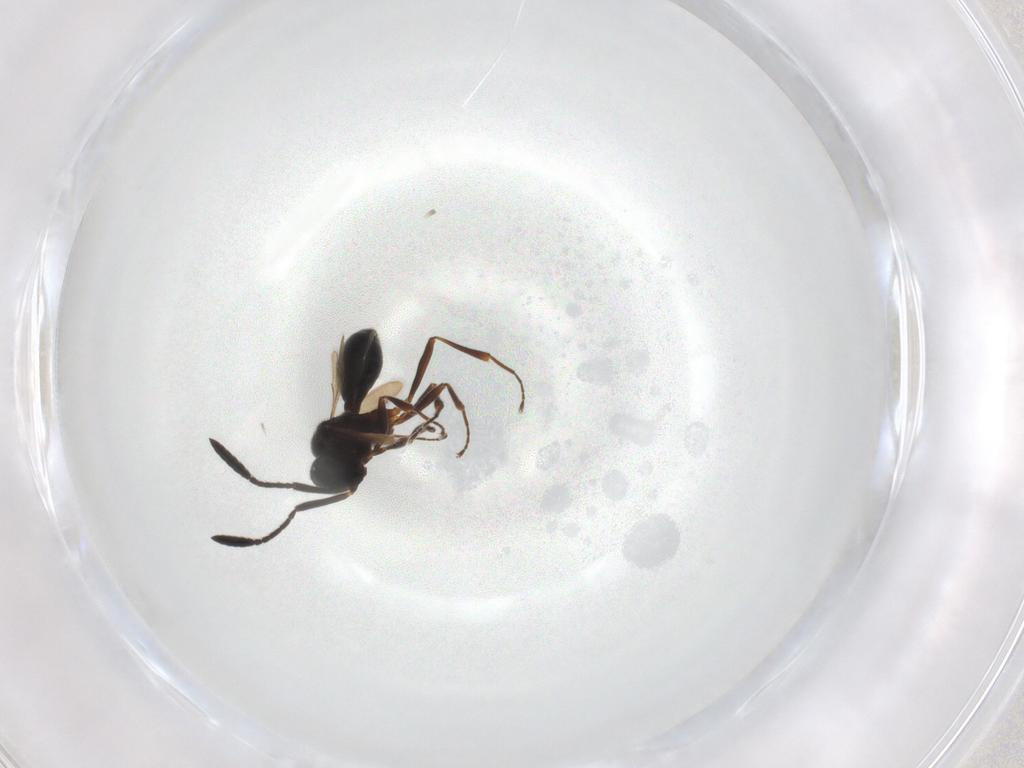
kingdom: Animalia
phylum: Arthropoda
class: Insecta
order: Hymenoptera
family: Scelionidae
